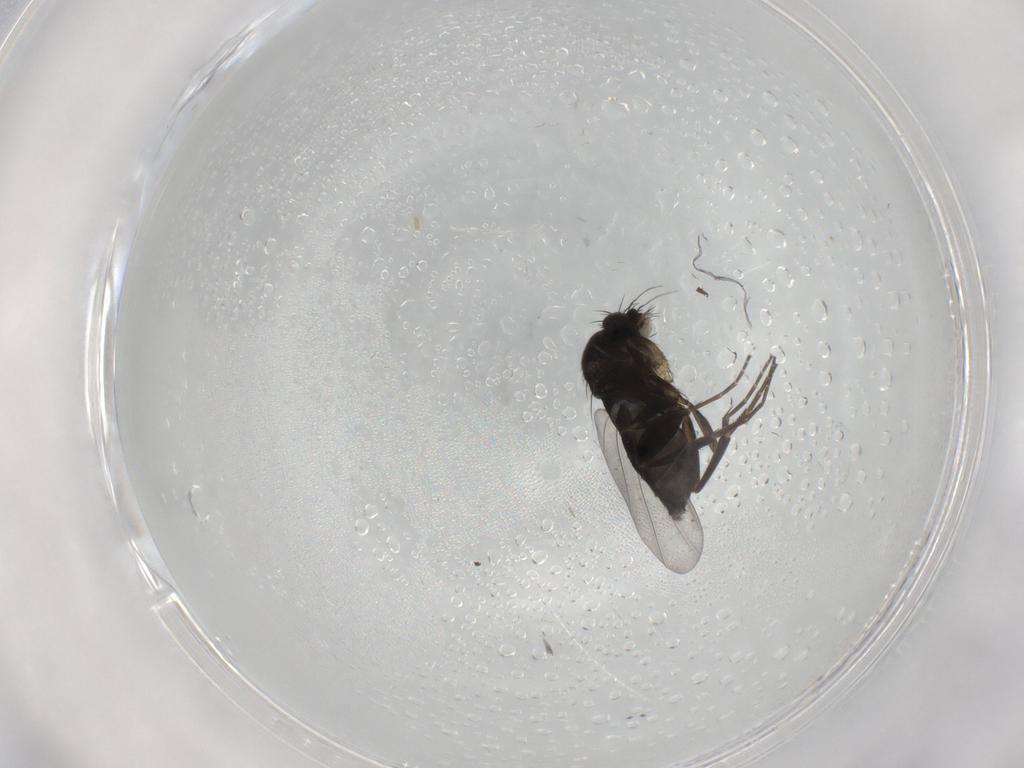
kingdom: Animalia
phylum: Arthropoda
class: Insecta
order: Diptera
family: Phoridae
